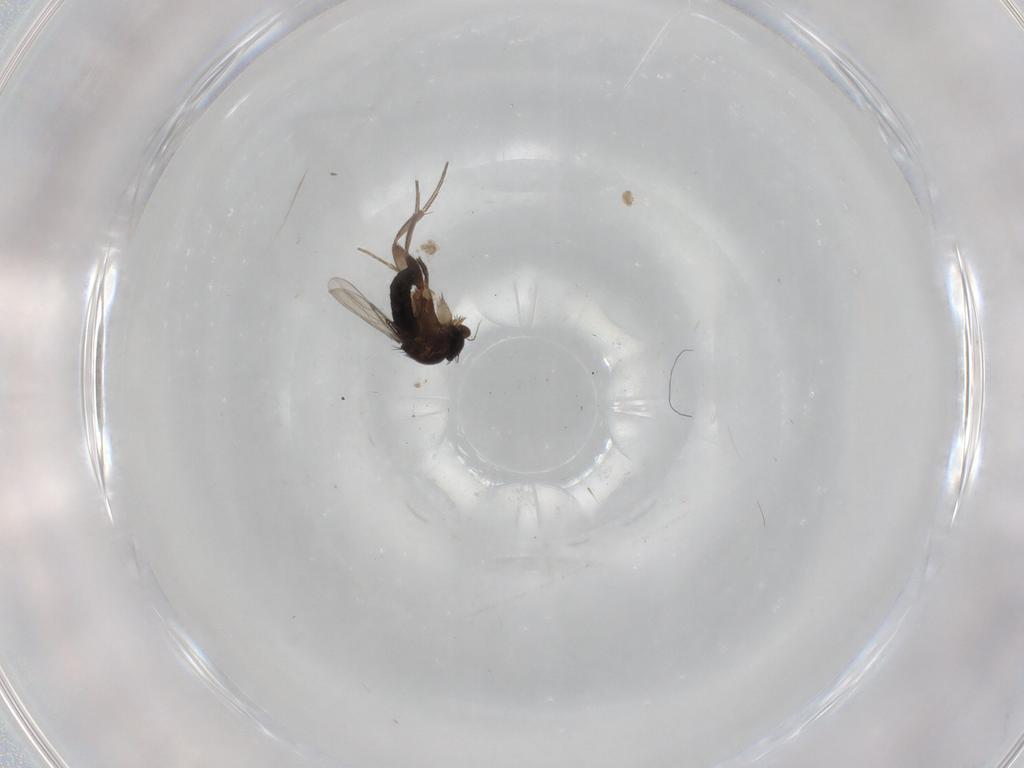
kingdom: Animalia
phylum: Arthropoda
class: Insecta
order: Diptera
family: Phoridae
